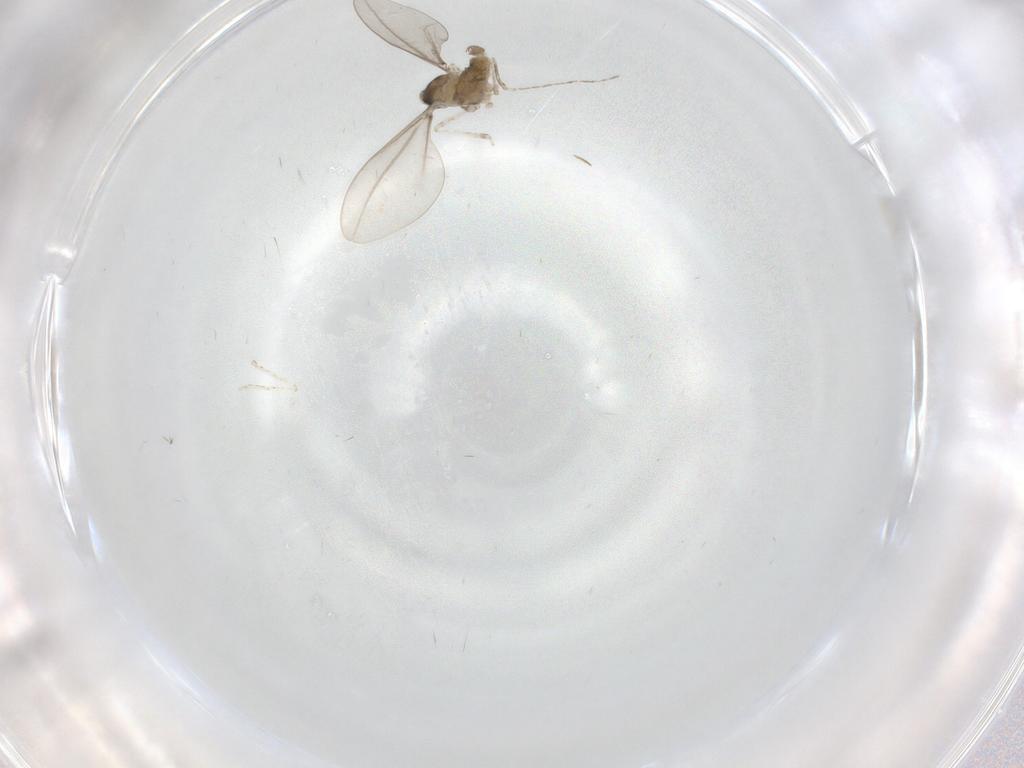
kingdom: Animalia
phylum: Arthropoda
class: Insecta
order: Diptera
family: Cecidomyiidae
